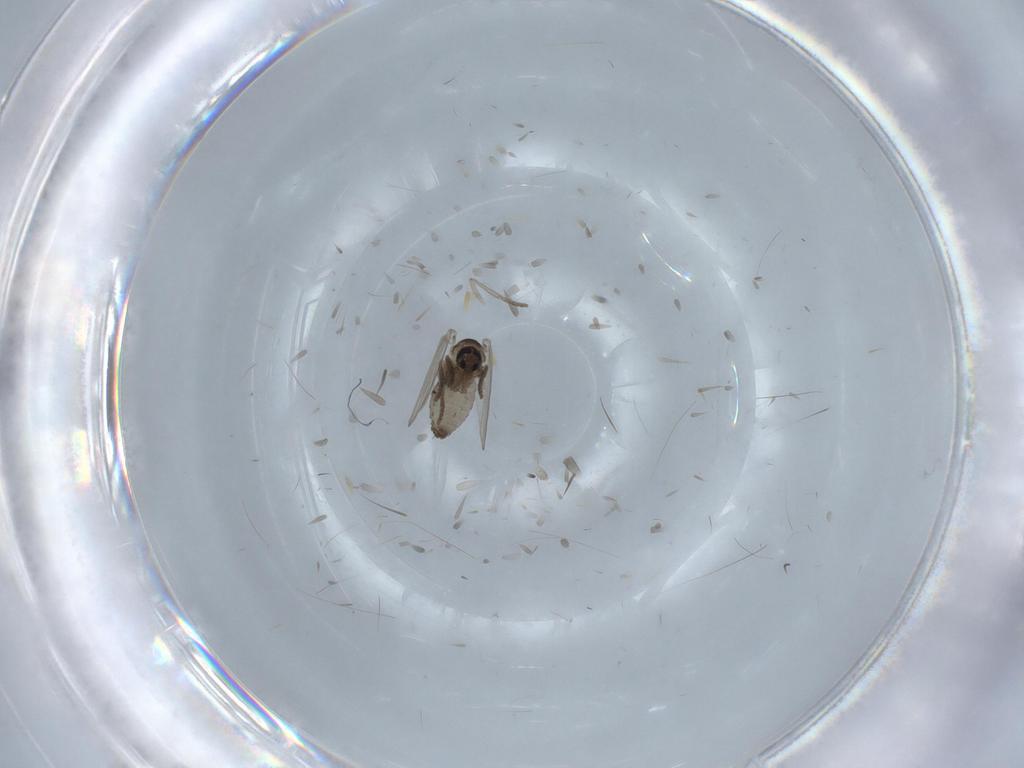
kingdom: Animalia
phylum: Arthropoda
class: Insecta
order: Diptera
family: Psychodidae
